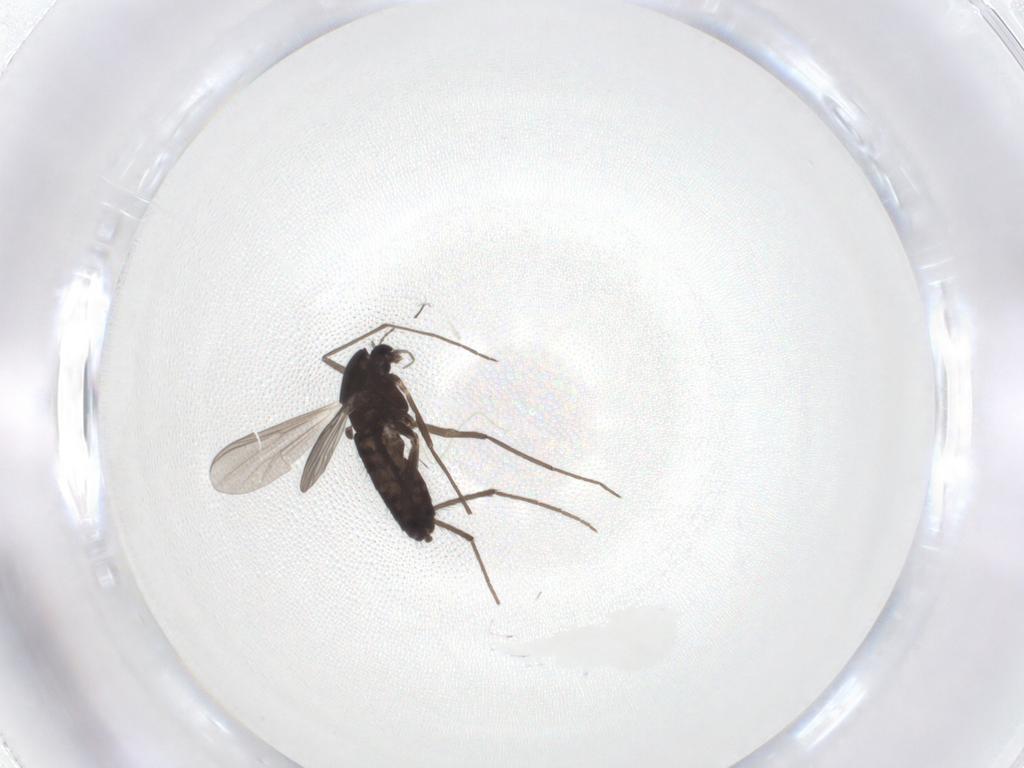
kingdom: Animalia
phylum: Arthropoda
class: Insecta
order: Diptera
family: Chironomidae
